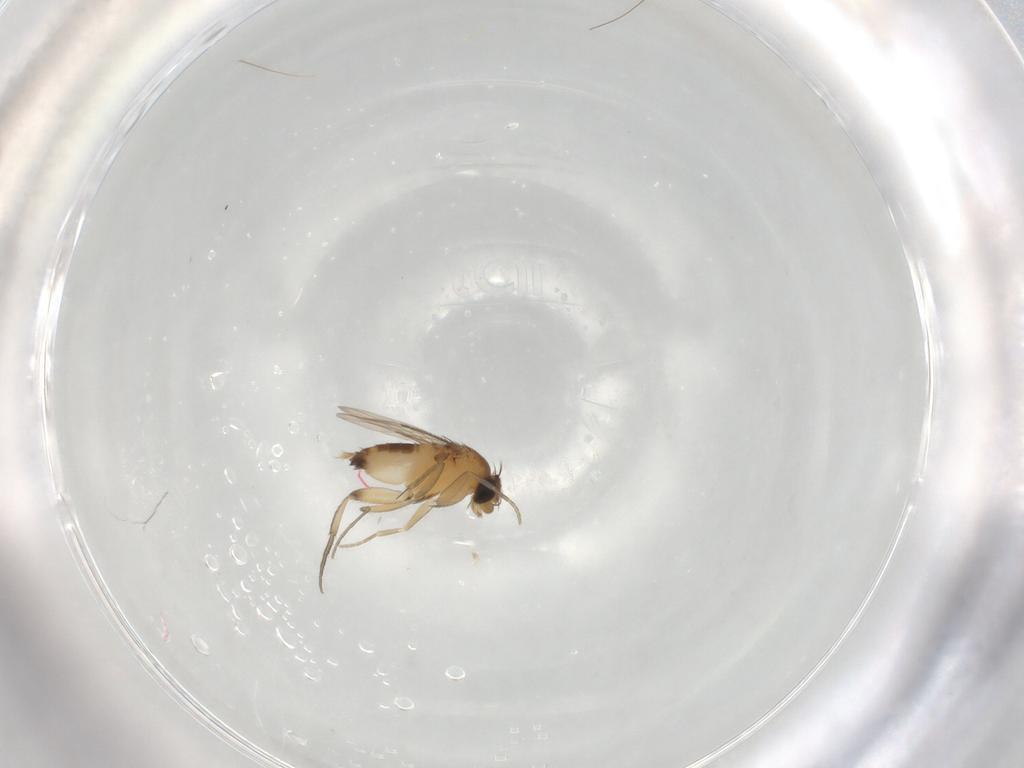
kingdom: Animalia
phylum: Arthropoda
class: Insecta
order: Diptera
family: Phoridae
